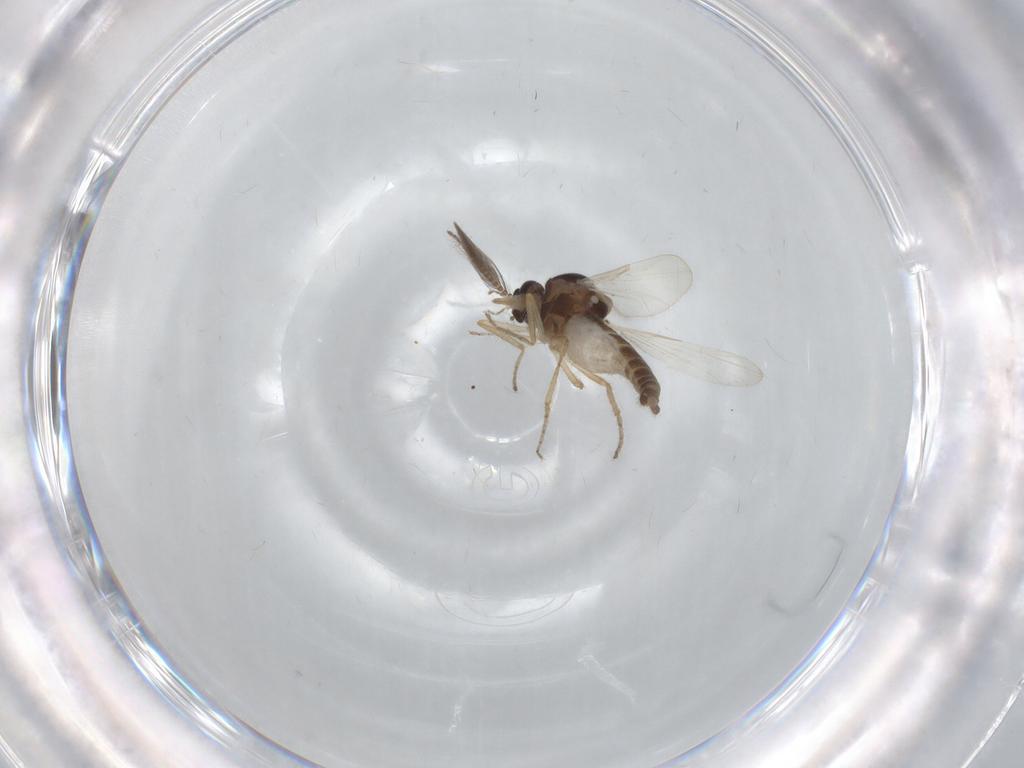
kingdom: Animalia
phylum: Arthropoda
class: Insecta
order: Diptera
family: Ceratopogonidae
